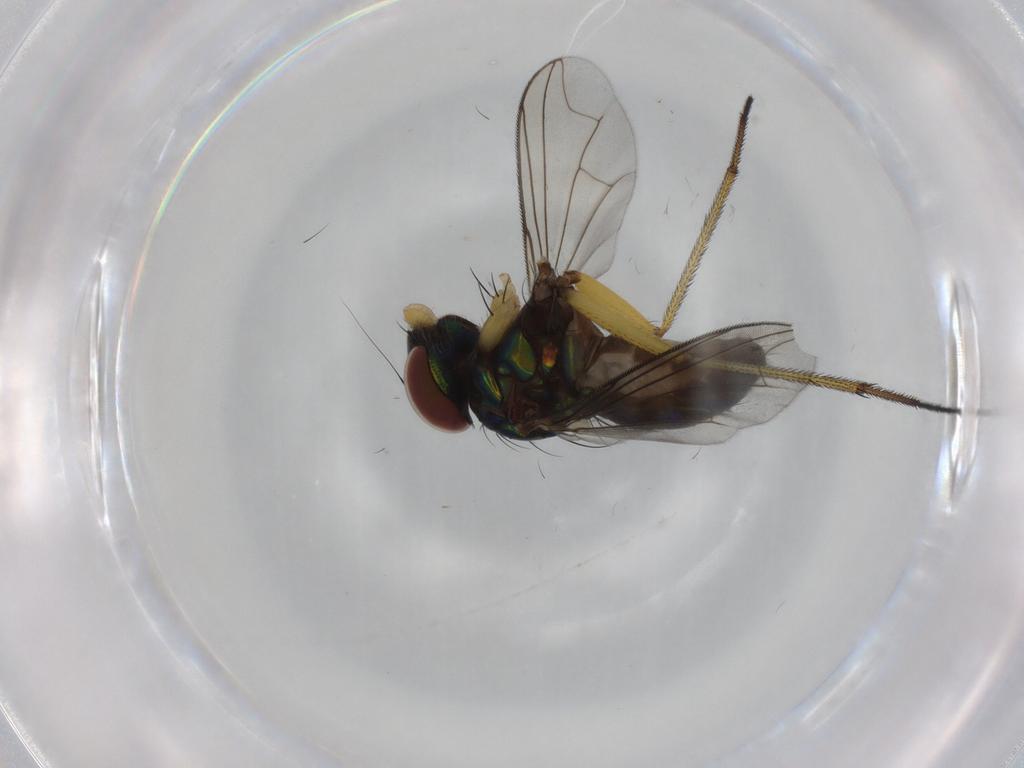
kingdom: Animalia
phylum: Arthropoda
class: Insecta
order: Diptera
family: Dolichopodidae
